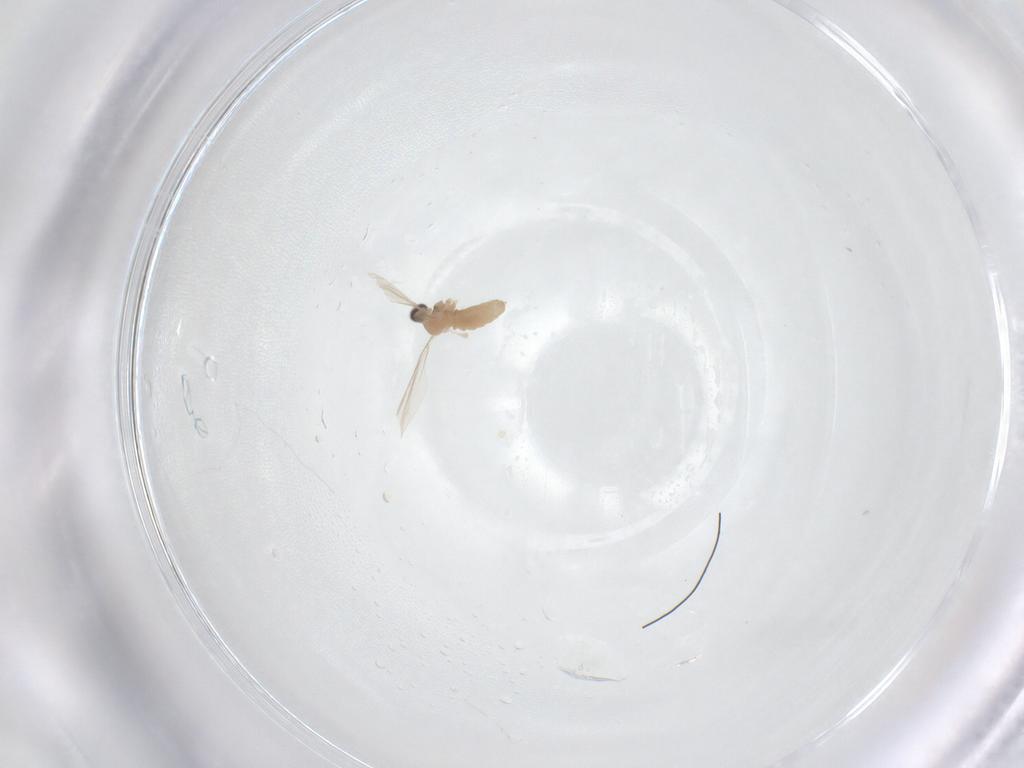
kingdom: Animalia
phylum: Arthropoda
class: Insecta
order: Diptera
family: Cecidomyiidae
